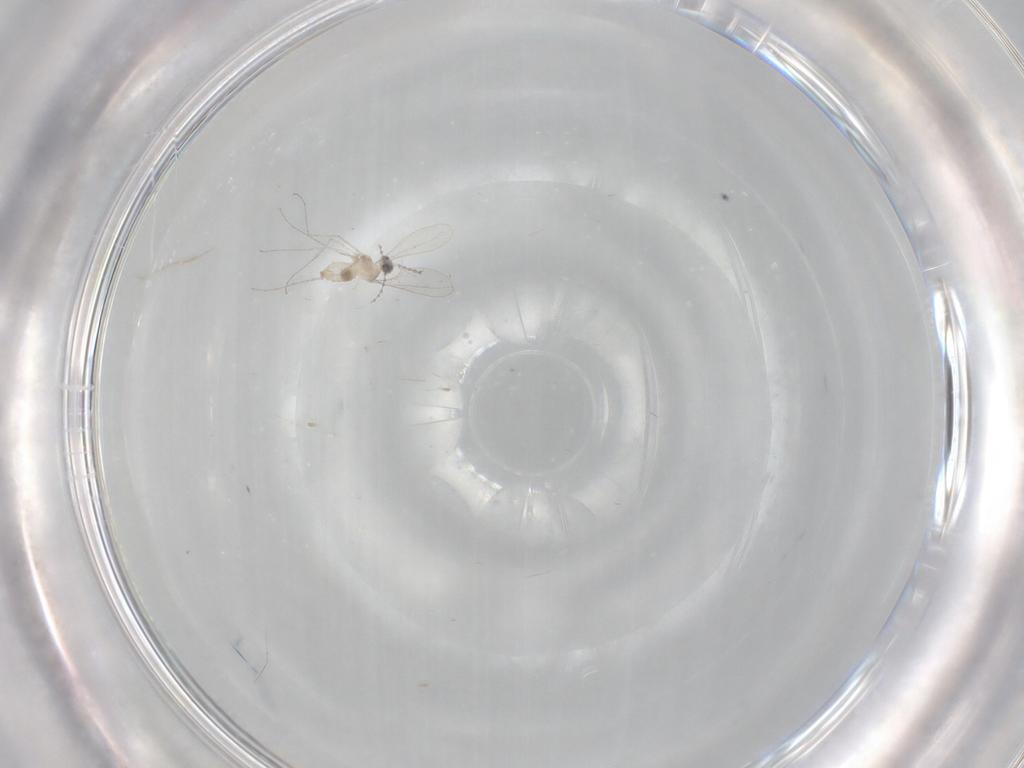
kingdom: Animalia
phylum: Arthropoda
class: Insecta
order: Diptera
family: Cecidomyiidae
